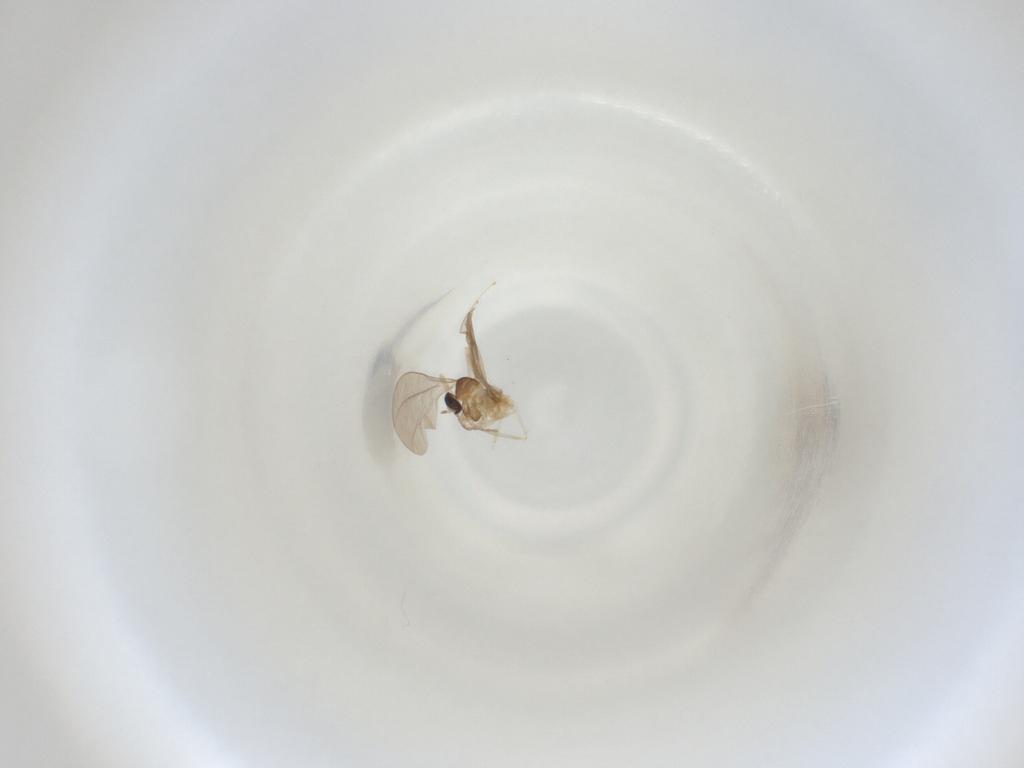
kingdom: Animalia
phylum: Arthropoda
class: Insecta
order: Diptera
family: Cecidomyiidae
